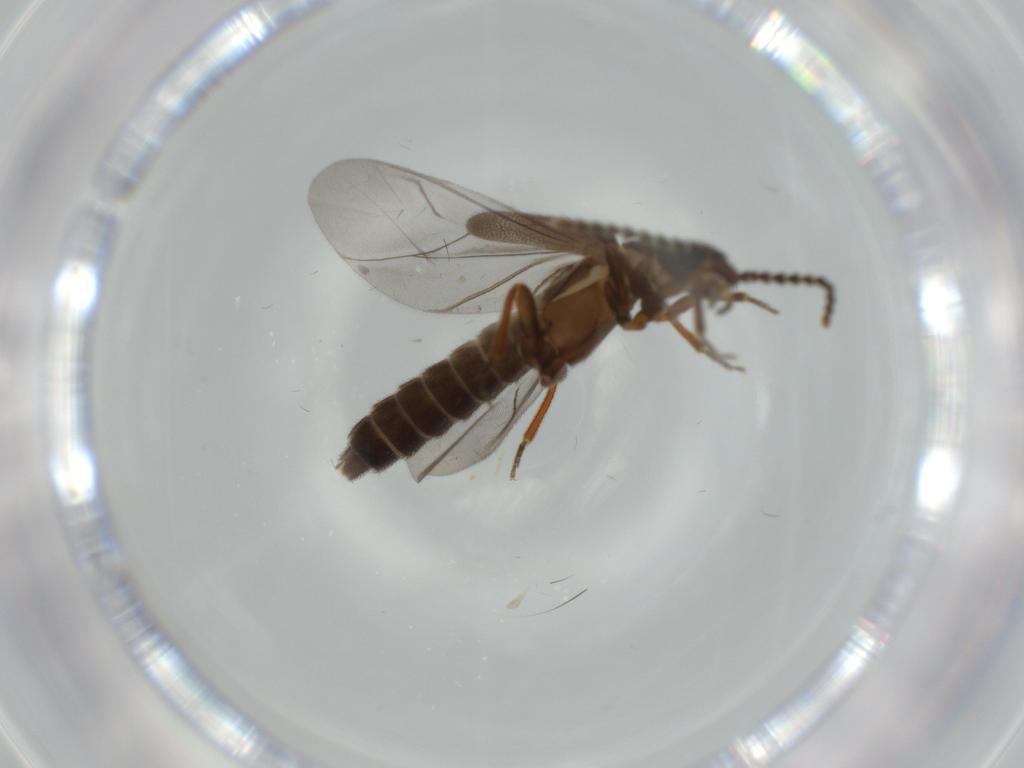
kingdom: Animalia
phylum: Arthropoda
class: Insecta
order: Coleoptera
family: Omethidae
